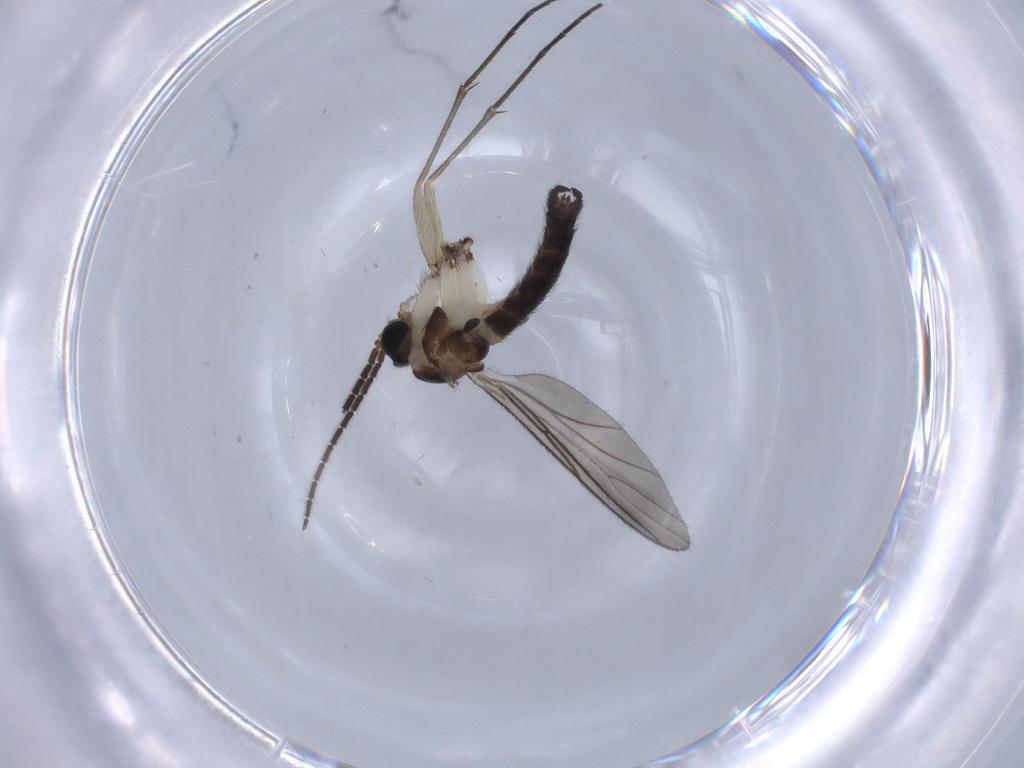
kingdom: Animalia
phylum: Arthropoda
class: Insecta
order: Diptera
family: Sciaridae
